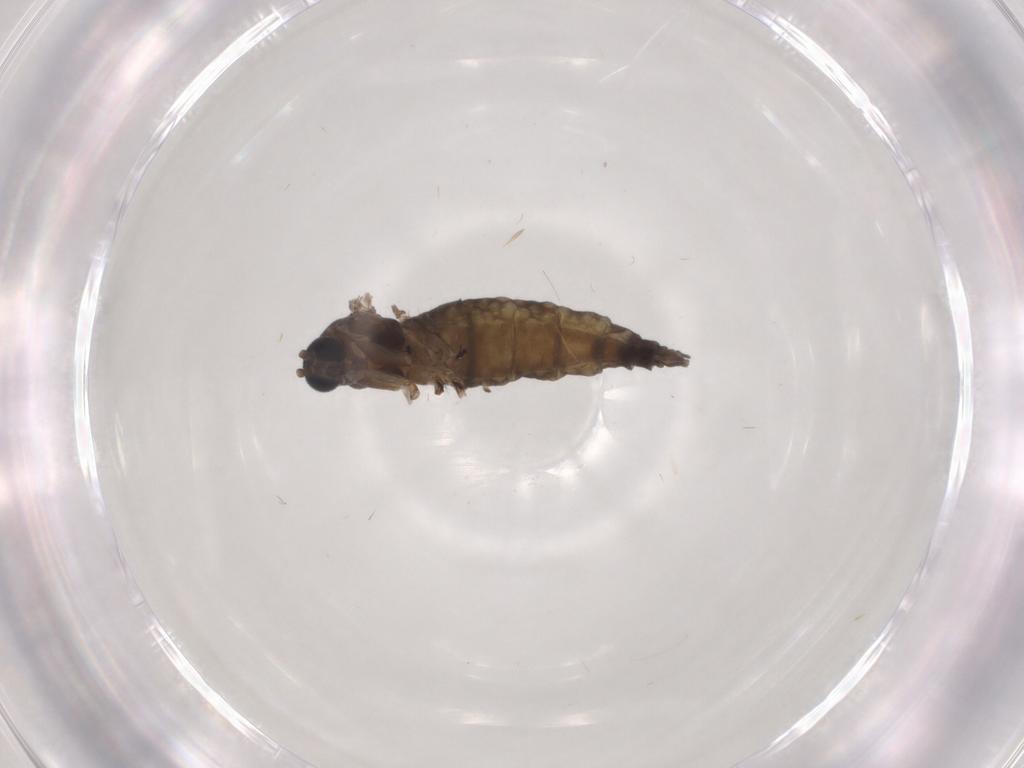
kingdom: Animalia
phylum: Arthropoda
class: Insecta
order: Diptera
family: Sciaridae
